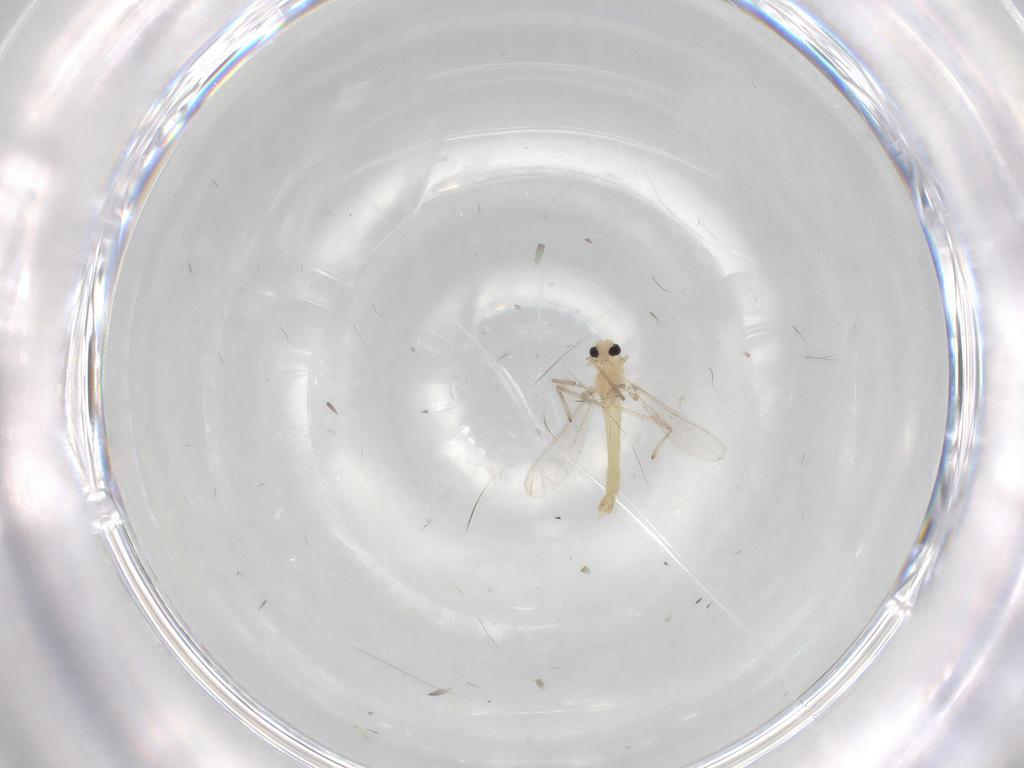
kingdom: Animalia
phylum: Arthropoda
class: Insecta
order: Diptera
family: Chironomidae
